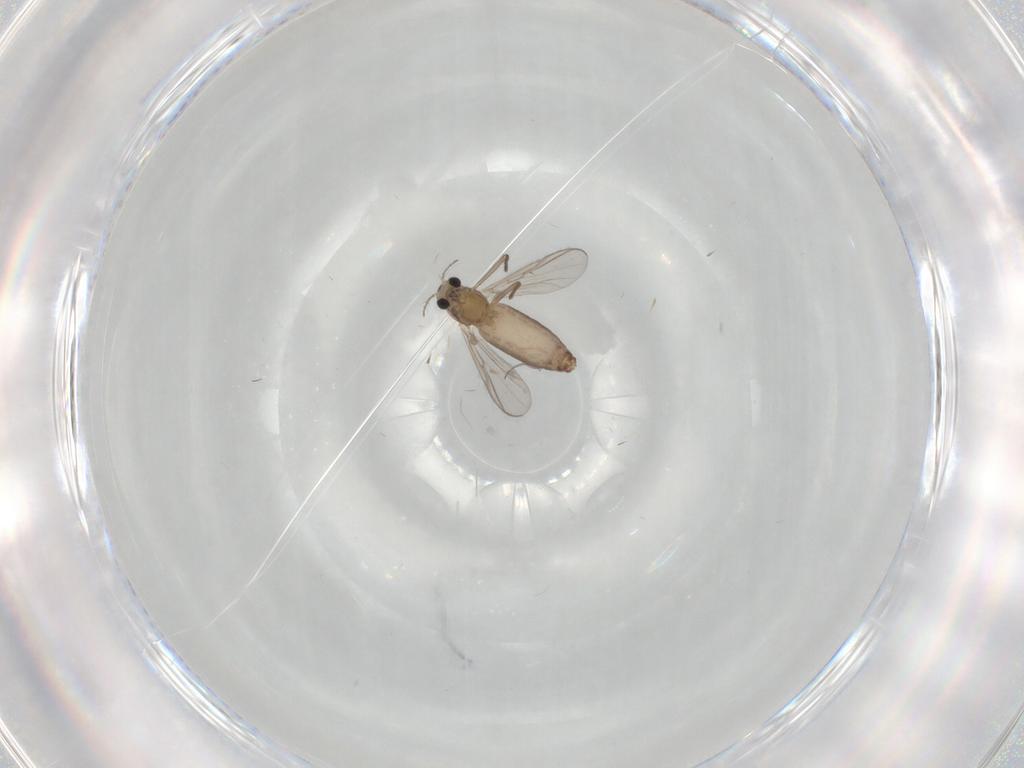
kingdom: Animalia
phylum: Arthropoda
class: Insecta
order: Diptera
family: Chironomidae
